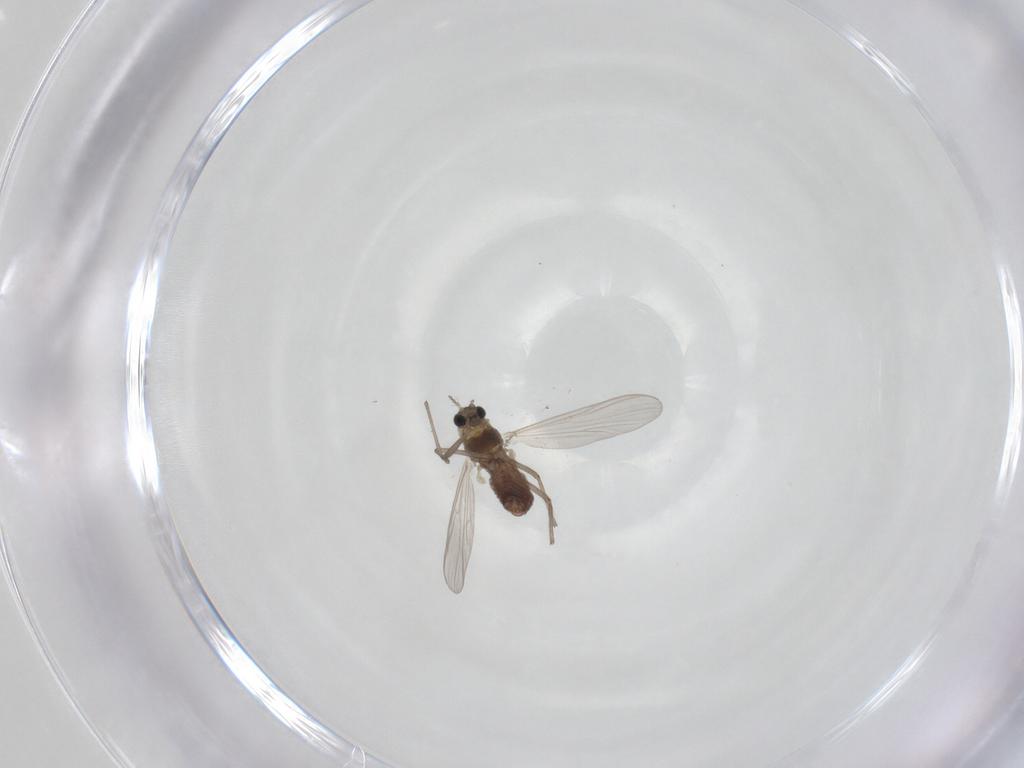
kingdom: Animalia
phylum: Arthropoda
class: Insecta
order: Diptera
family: Chironomidae
